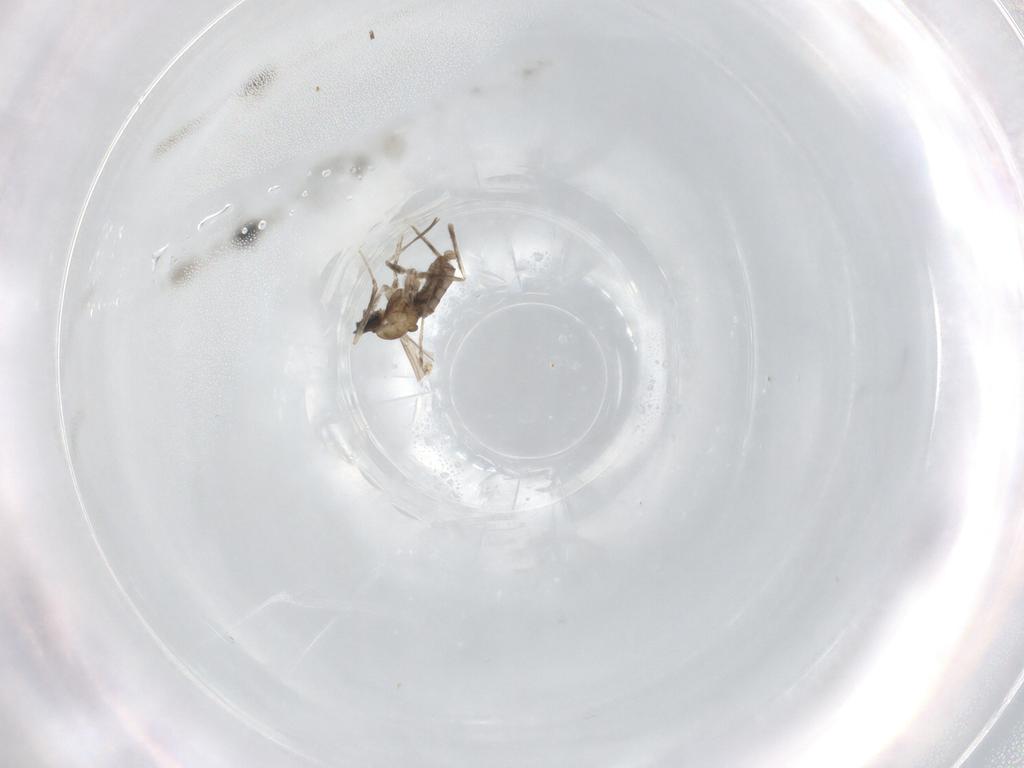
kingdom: Animalia
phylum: Arthropoda
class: Insecta
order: Diptera
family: Cecidomyiidae
